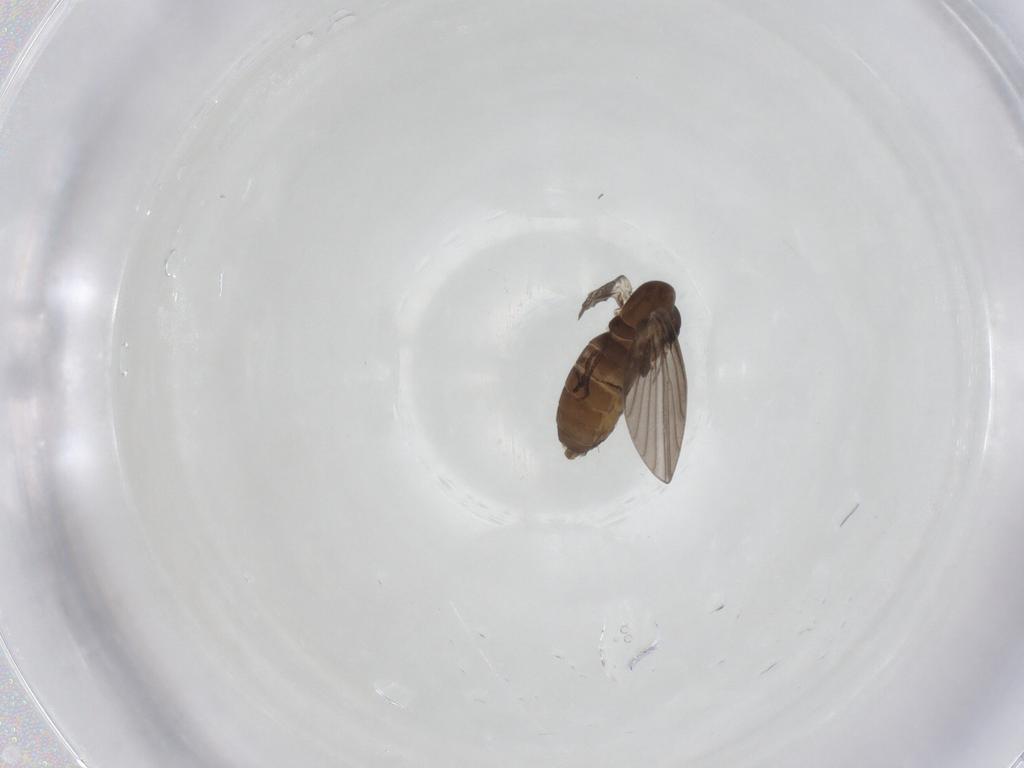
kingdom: Animalia
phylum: Arthropoda
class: Insecta
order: Diptera
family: Psychodidae
